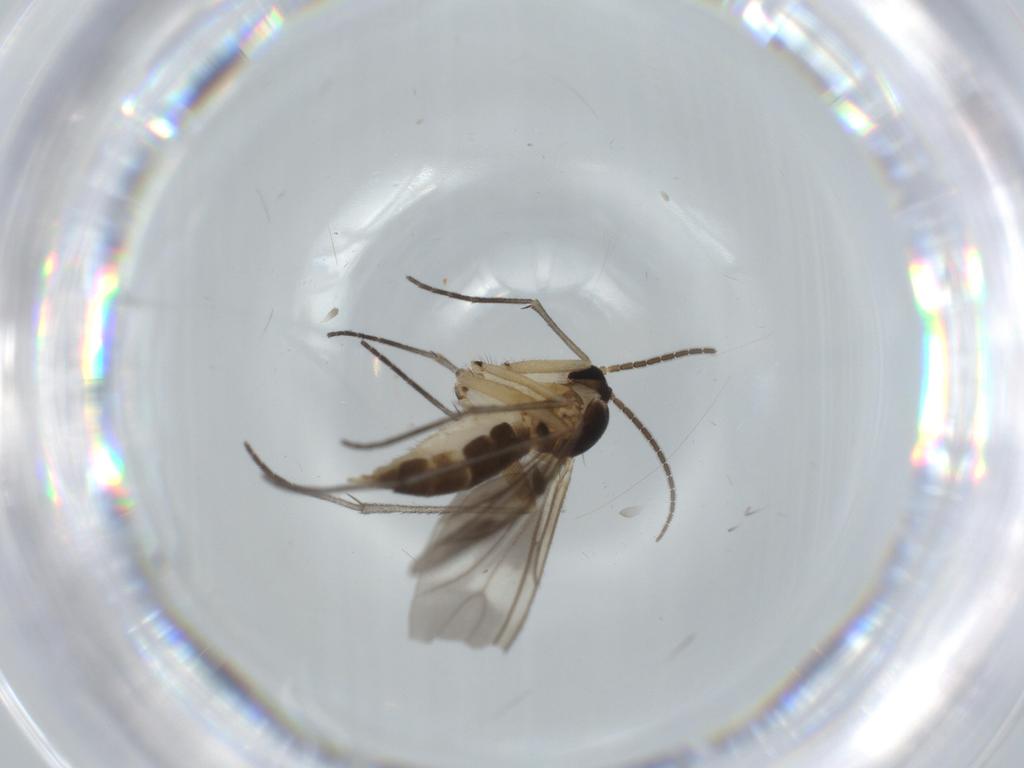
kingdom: Animalia
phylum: Arthropoda
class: Insecta
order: Diptera
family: Sciaridae
